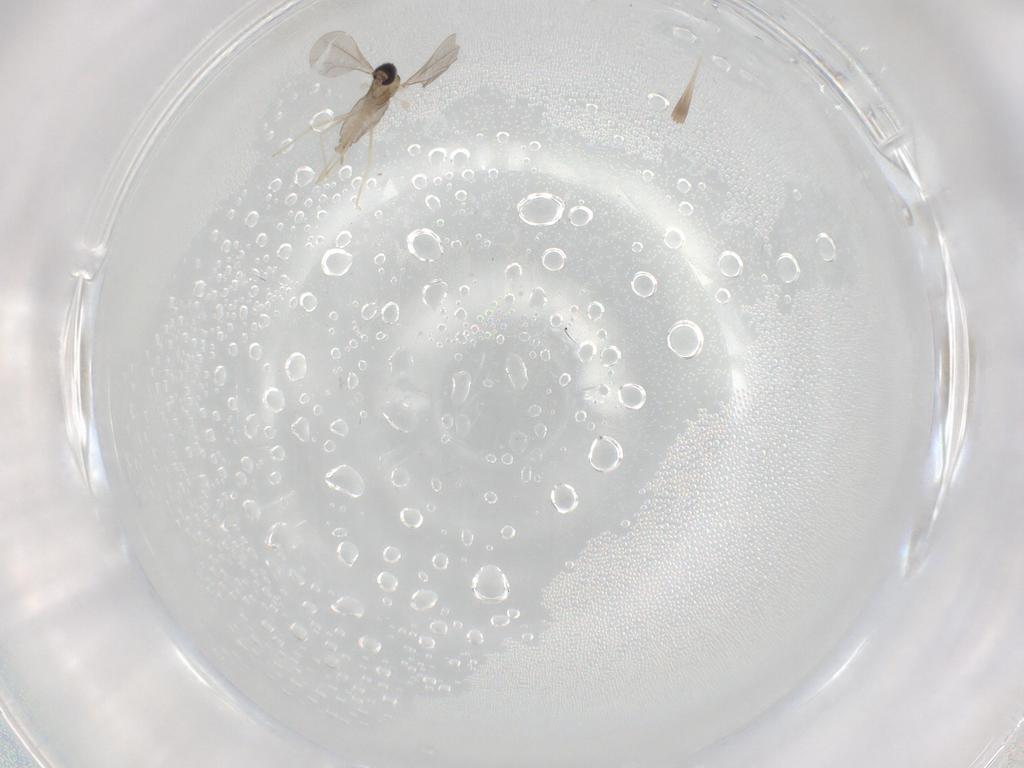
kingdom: Animalia
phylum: Arthropoda
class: Insecta
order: Diptera
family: Cecidomyiidae
